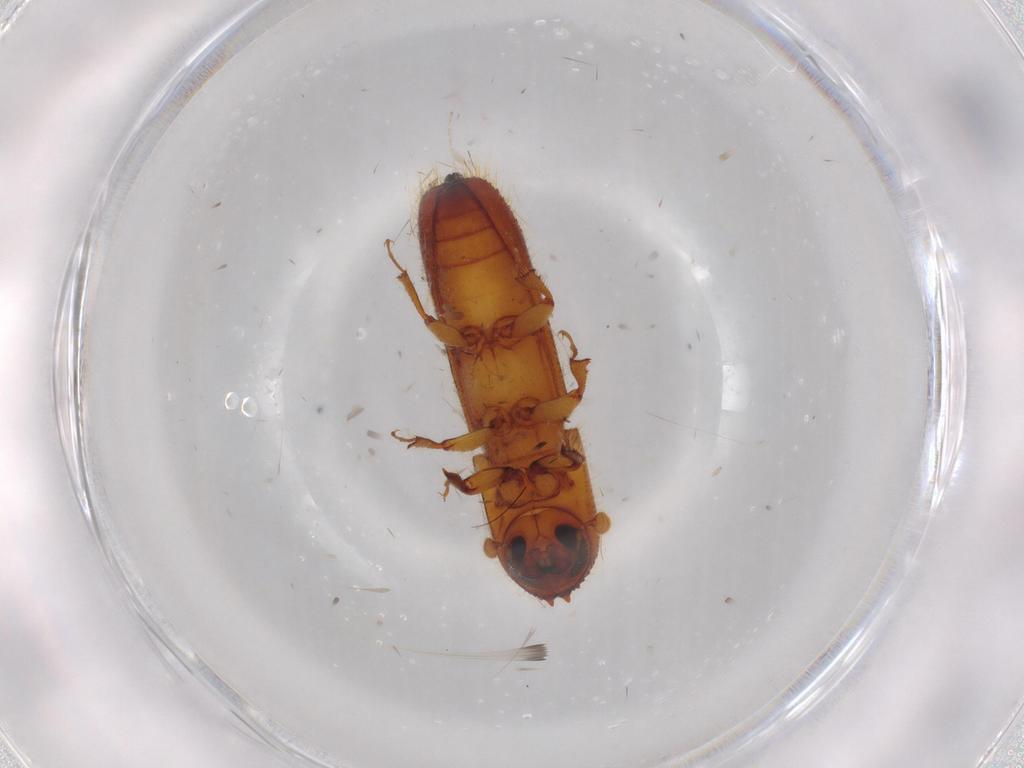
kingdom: Animalia
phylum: Arthropoda
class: Insecta
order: Coleoptera
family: Curculionidae
